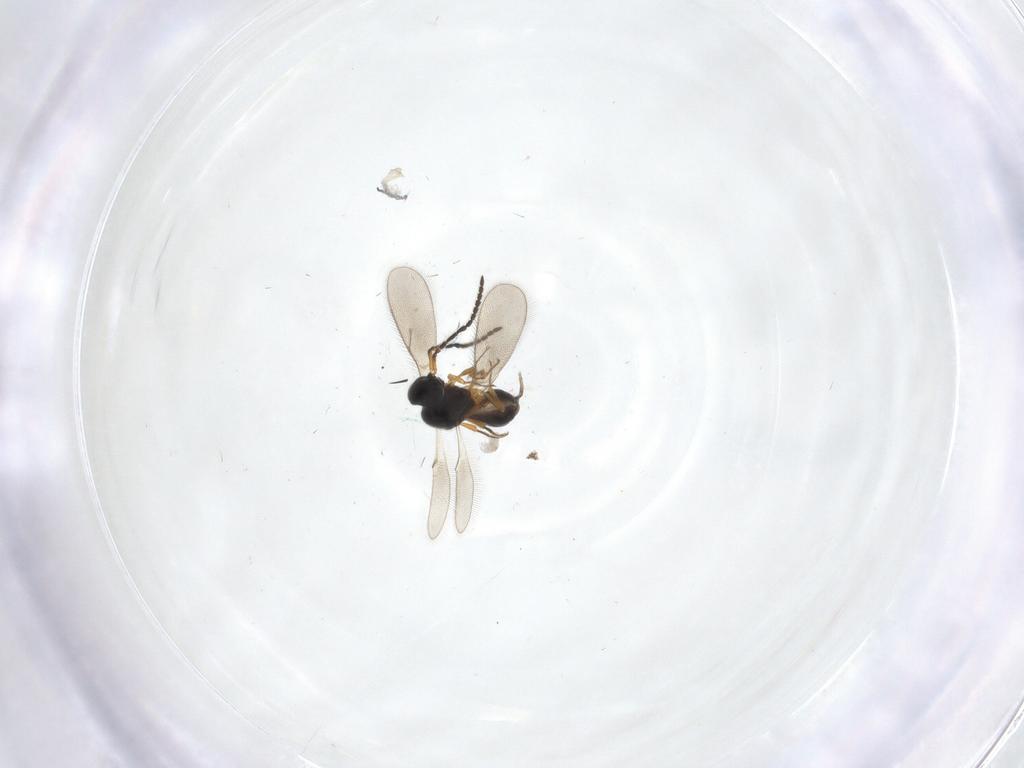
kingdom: Animalia
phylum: Arthropoda
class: Insecta
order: Hymenoptera
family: Scelionidae
